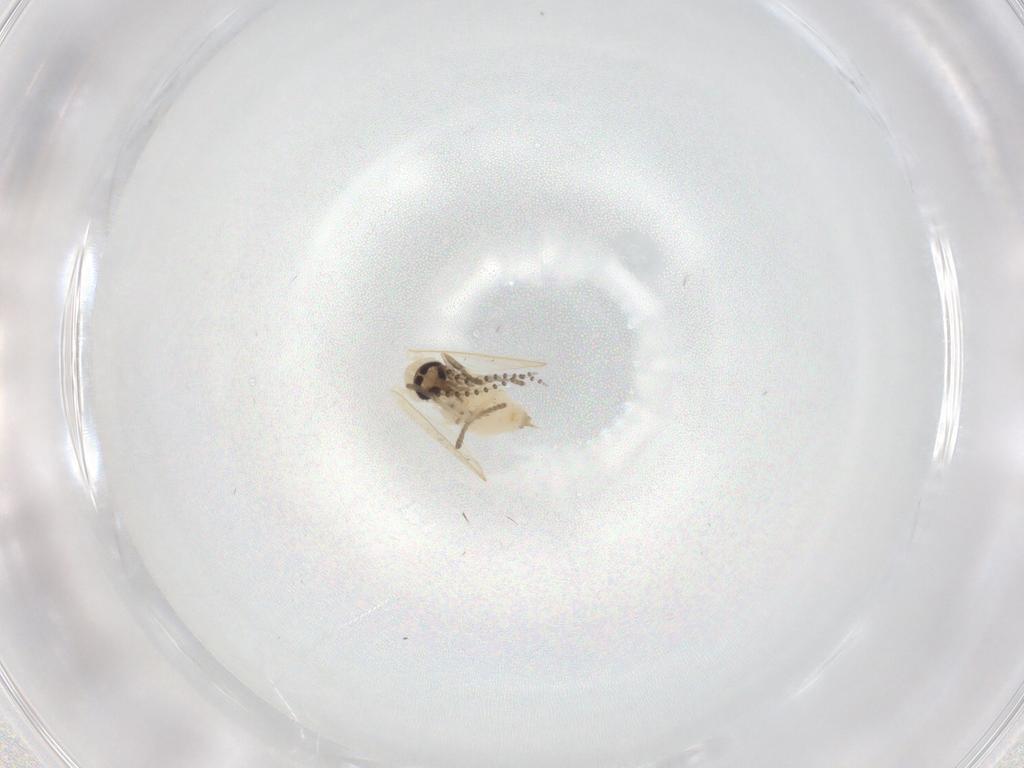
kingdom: Animalia
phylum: Arthropoda
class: Insecta
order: Diptera
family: Psychodidae
